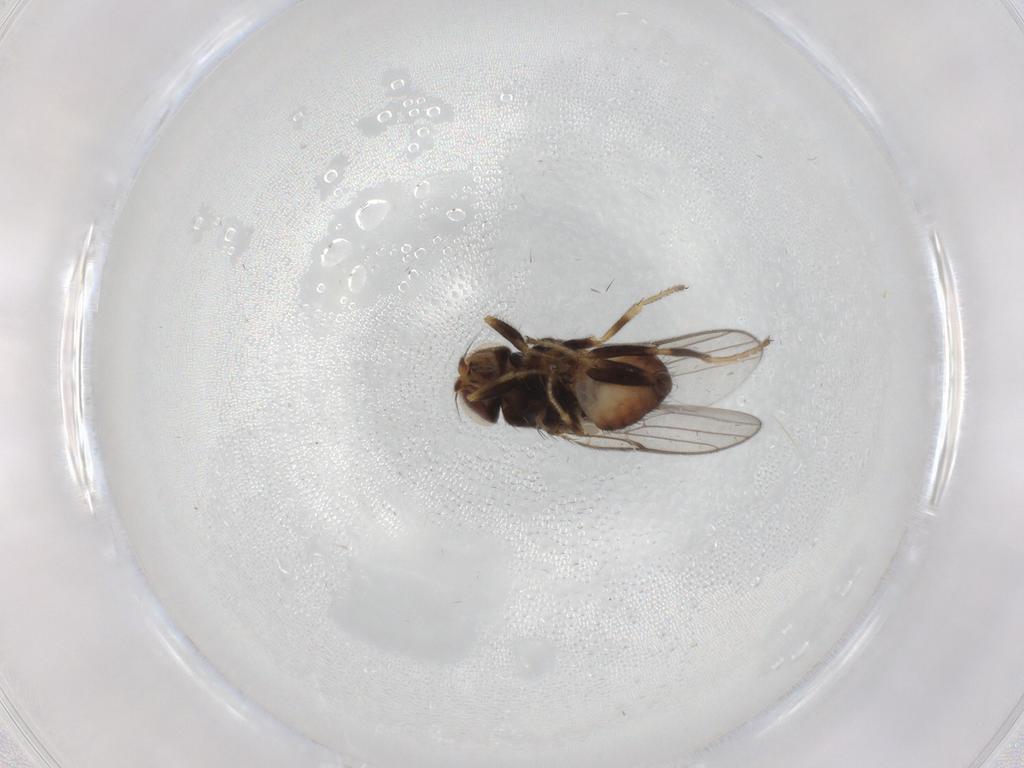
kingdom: Animalia
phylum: Arthropoda
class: Insecta
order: Diptera
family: Chloropidae
